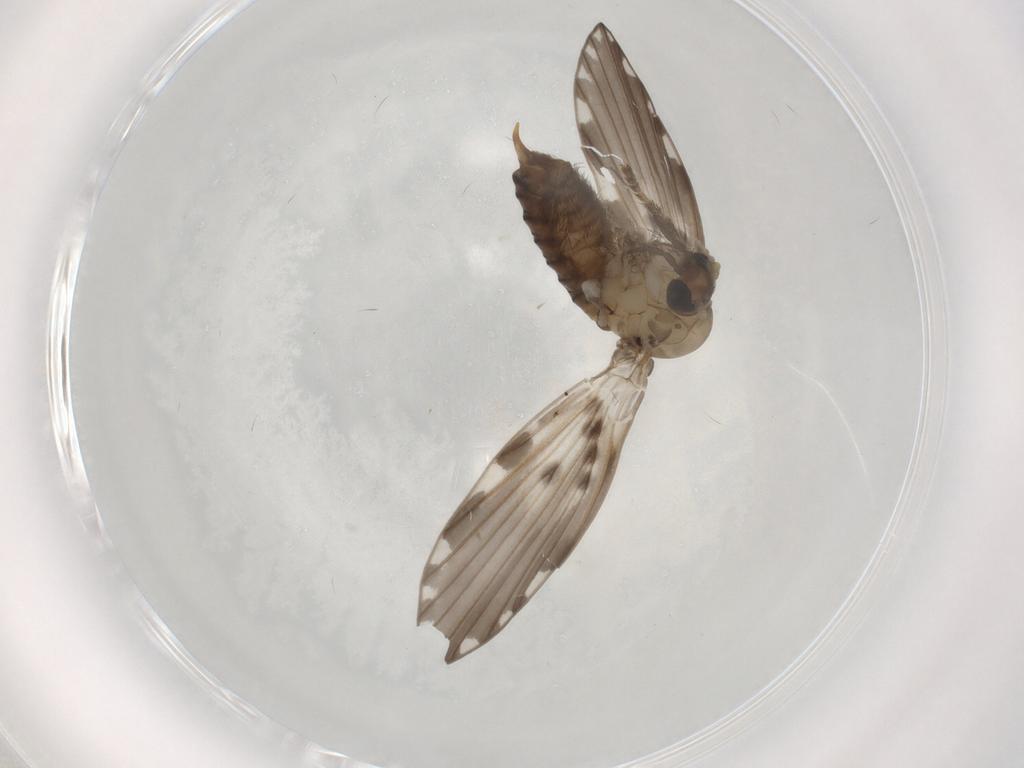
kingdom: Animalia
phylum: Arthropoda
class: Insecta
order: Diptera
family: Psychodidae
